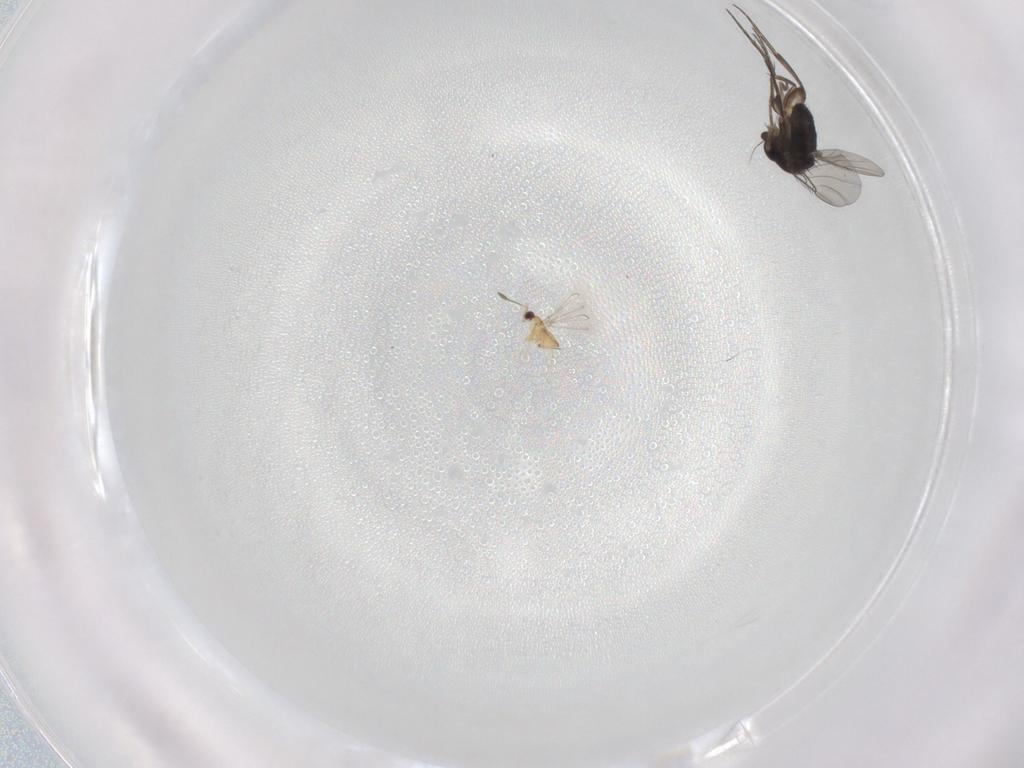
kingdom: Animalia
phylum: Arthropoda
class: Insecta
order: Diptera
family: Phoridae
